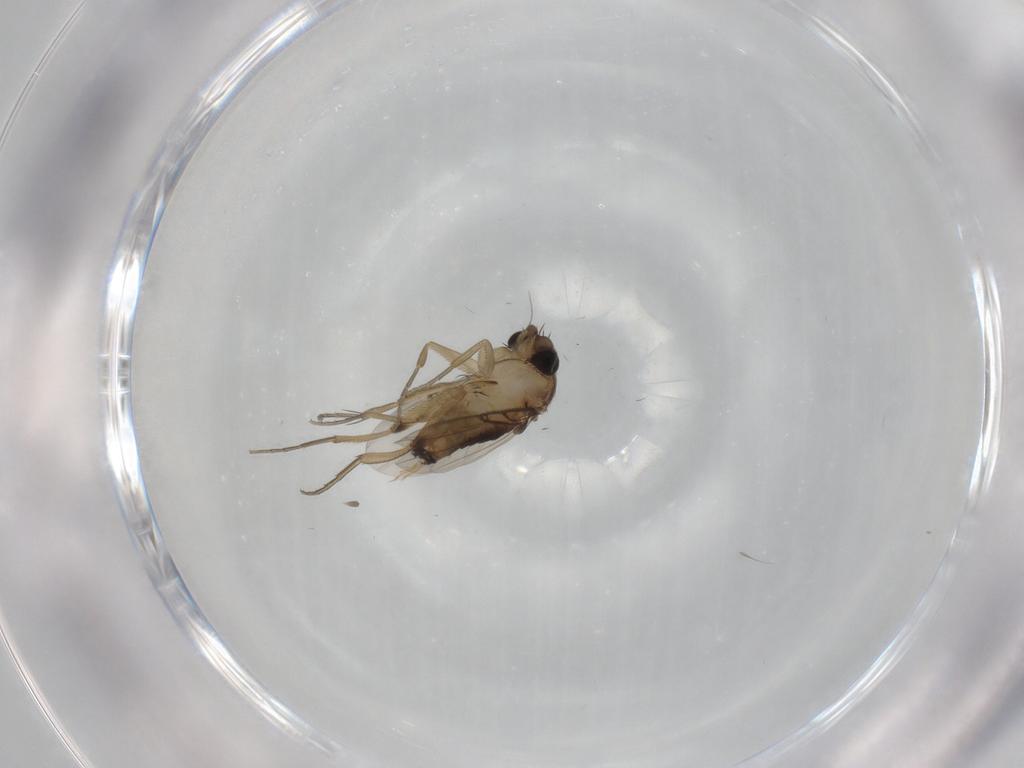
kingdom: Animalia
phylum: Arthropoda
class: Insecta
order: Diptera
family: Phoridae
